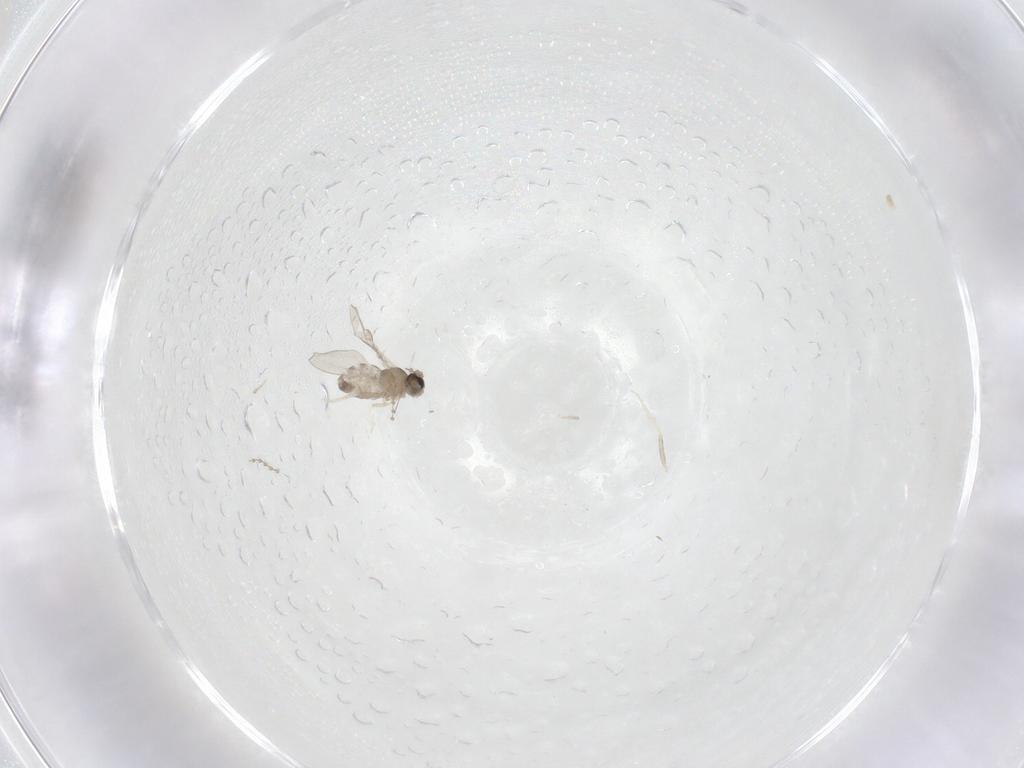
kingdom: Animalia
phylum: Arthropoda
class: Insecta
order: Diptera
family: Cecidomyiidae
